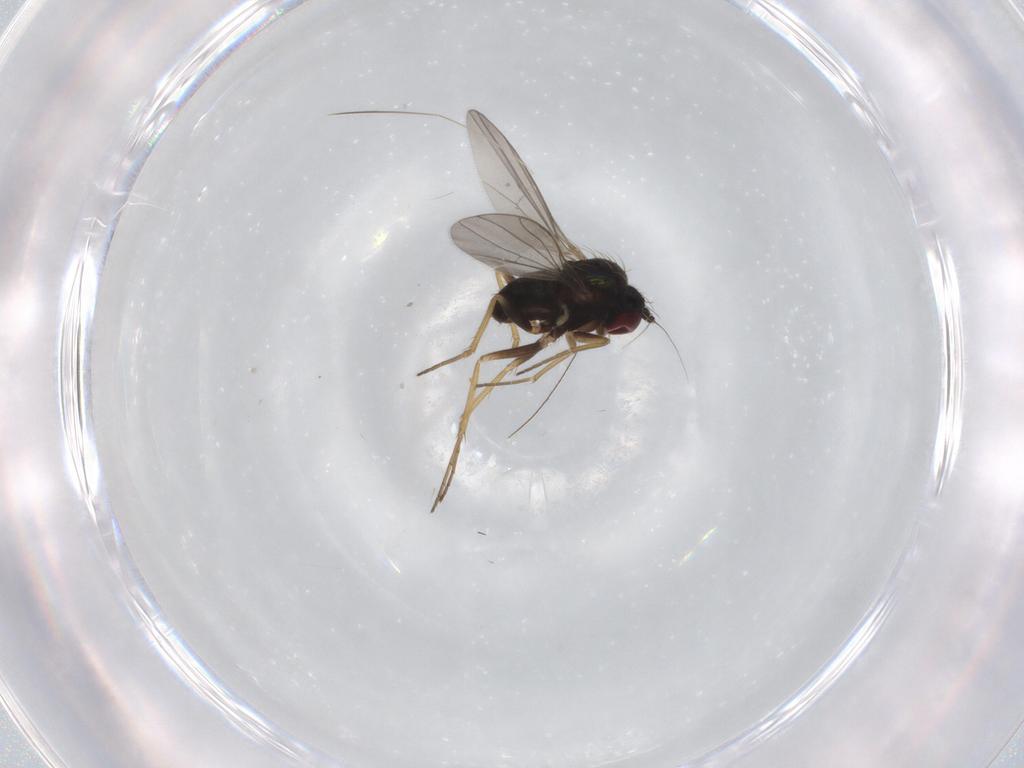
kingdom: Animalia
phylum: Arthropoda
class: Insecta
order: Diptera
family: Dolichopodidae
